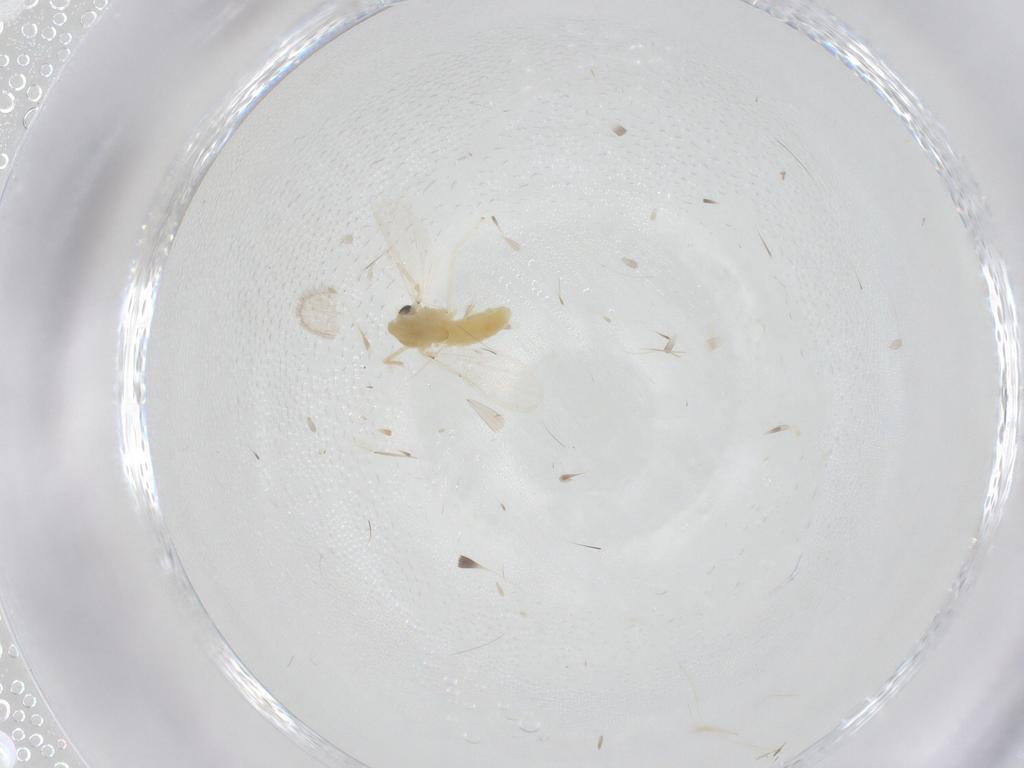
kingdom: Animalia
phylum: Arthropoda
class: Insecta
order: Diptera
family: Chironomidae
